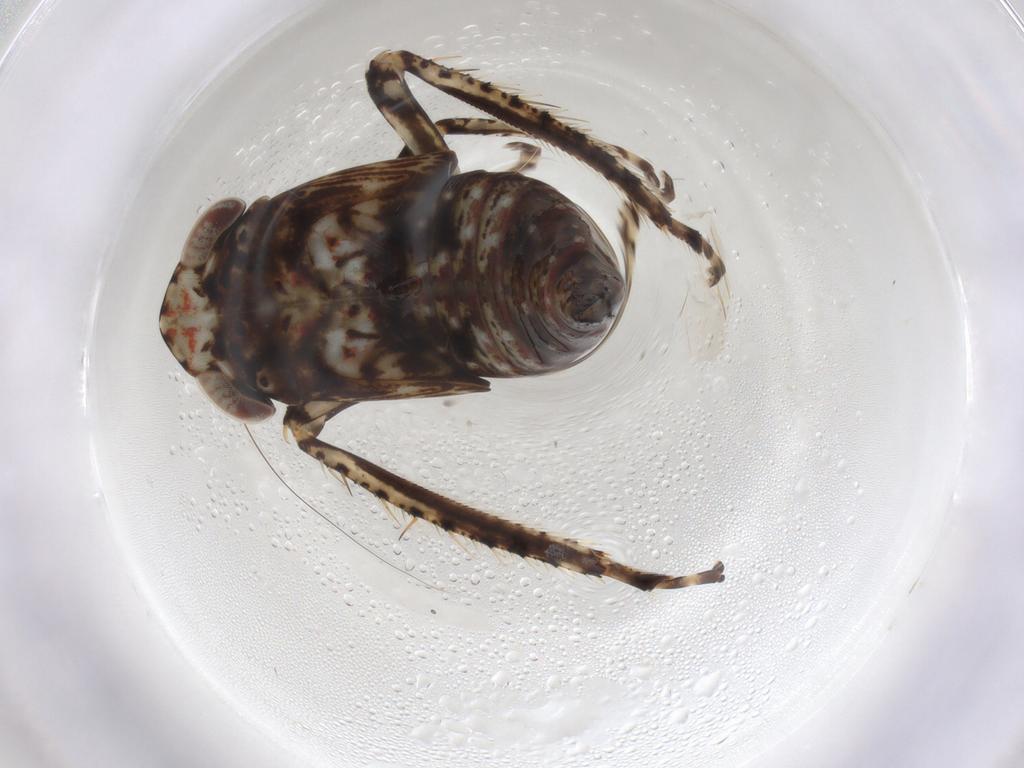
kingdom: Animalia
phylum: Arthropoda
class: Insecta
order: Hemiptera
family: Cicadellidae
